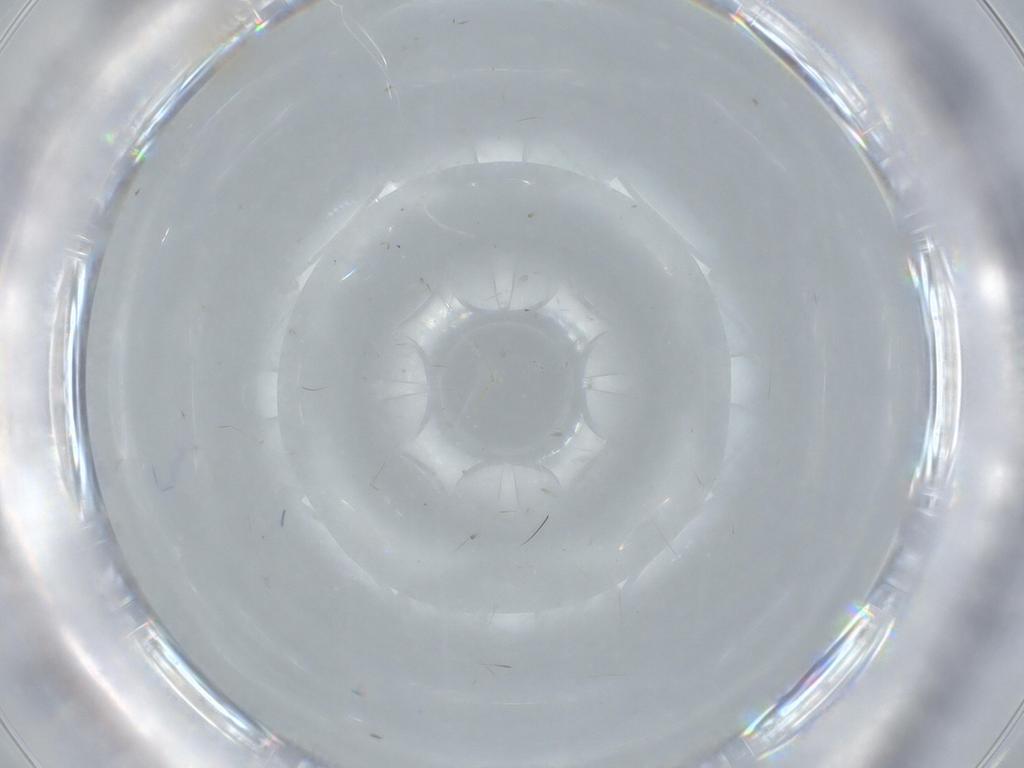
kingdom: Animalia
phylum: Arthropoda
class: Insecta
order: Blattodea
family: Ectobiidae
